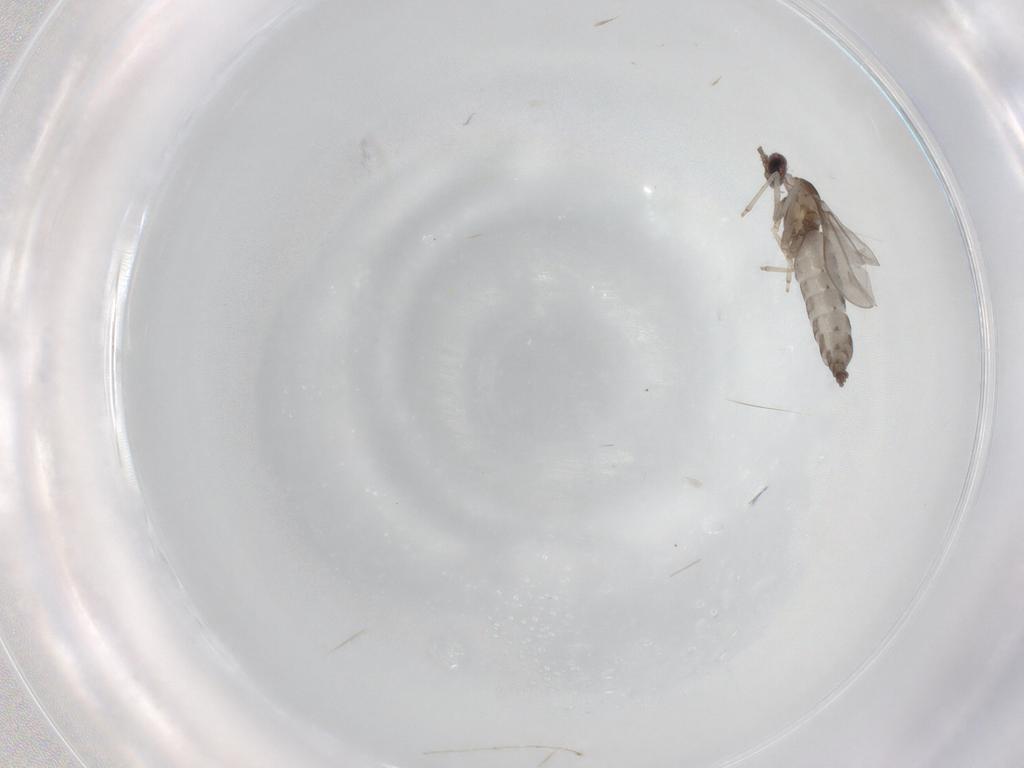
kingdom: Animalia
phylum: Arthropoda
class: Insecta
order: Diptera
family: Cecidomyiidae
